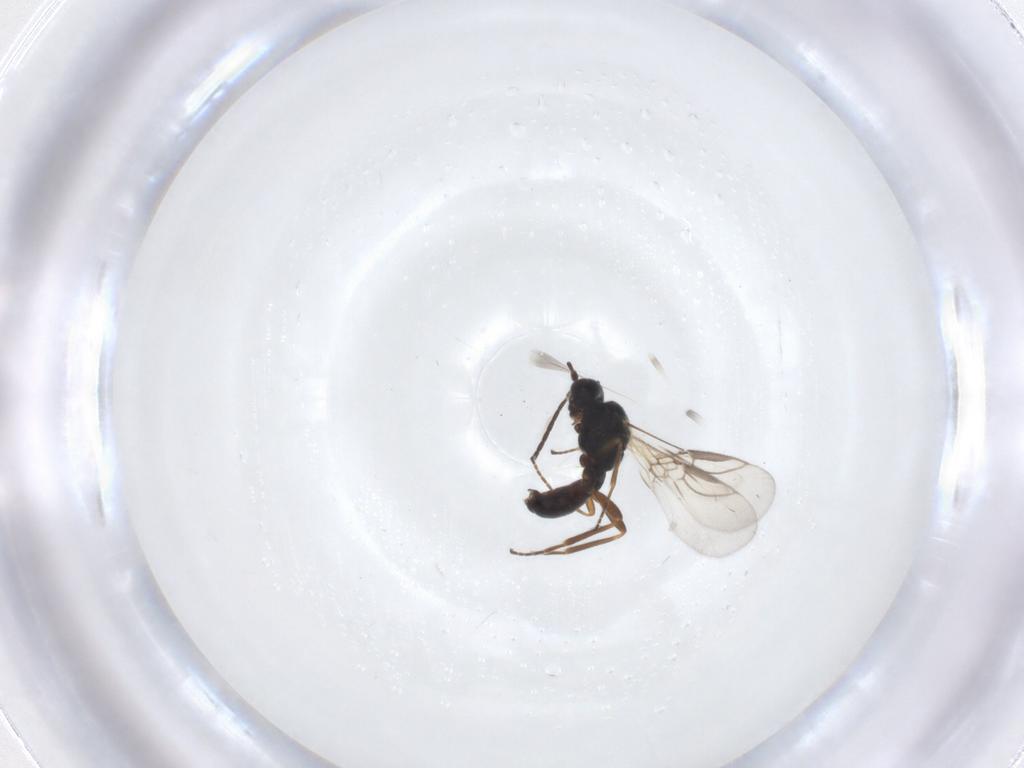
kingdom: Animalia
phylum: Arthropoda
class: Insecta
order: Hymenoptera
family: Braconidae
